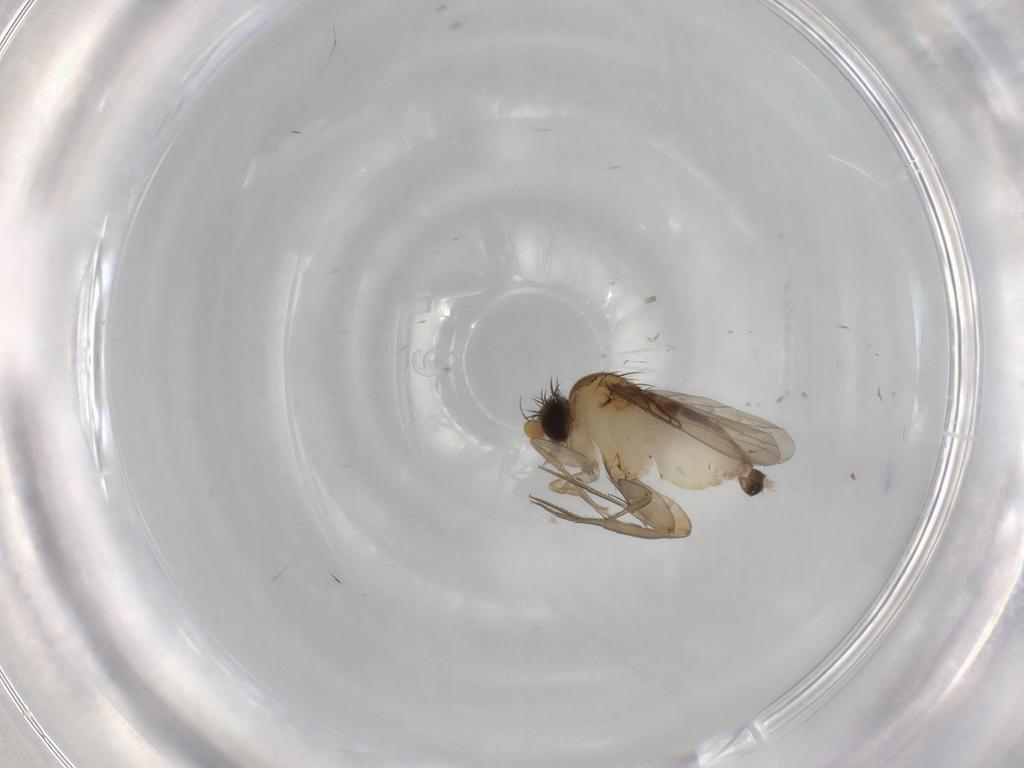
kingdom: Animalia
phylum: Arthropoda
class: Insecta
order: Diptera
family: Phoridae
